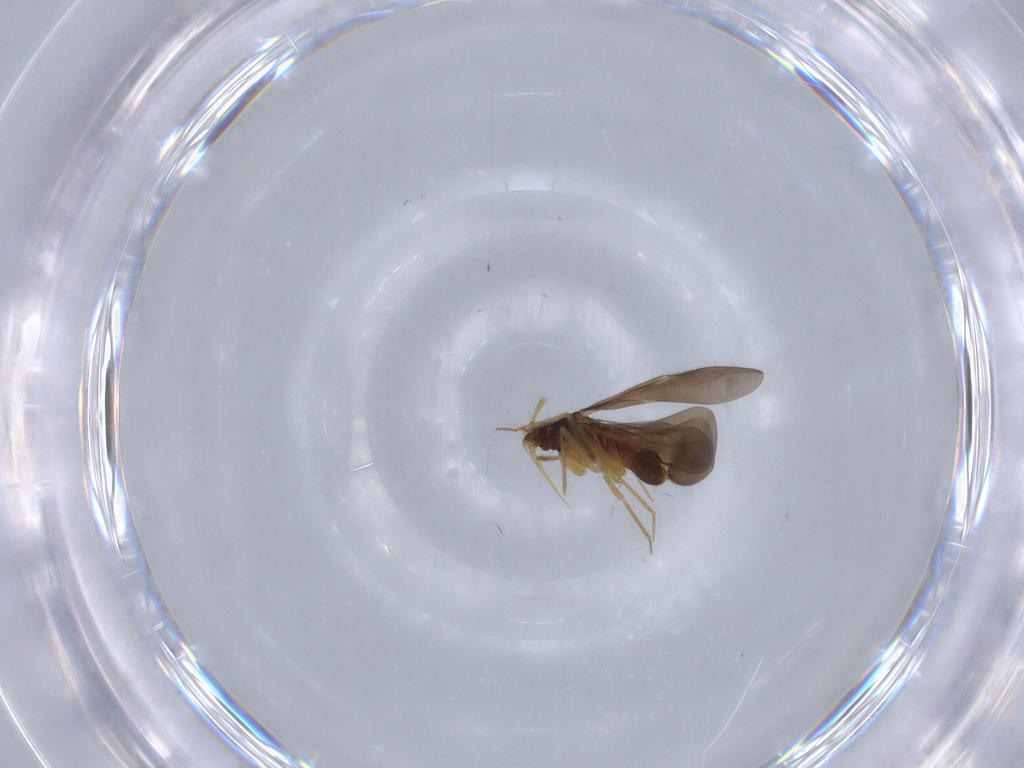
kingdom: Animalia
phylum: Arthropoda
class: Insecta
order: Hemiptera
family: Ceratocombidae
